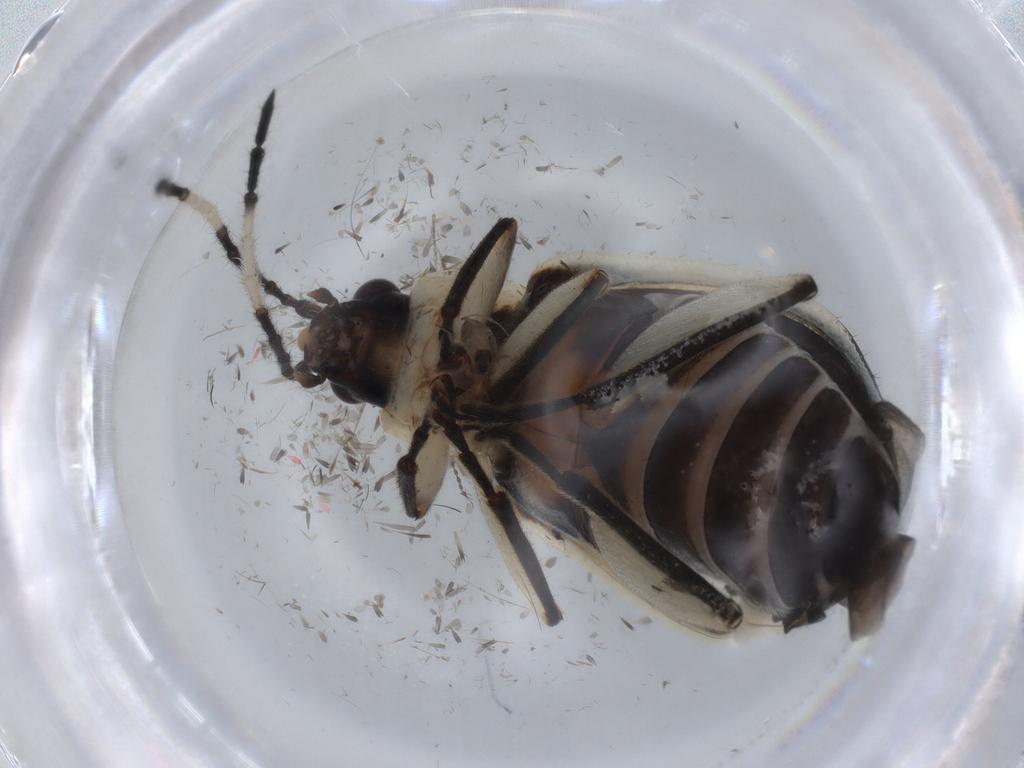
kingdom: Animalia
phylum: Arthropoda
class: Insecta
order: Coleoptera
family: Chrysomelidae
